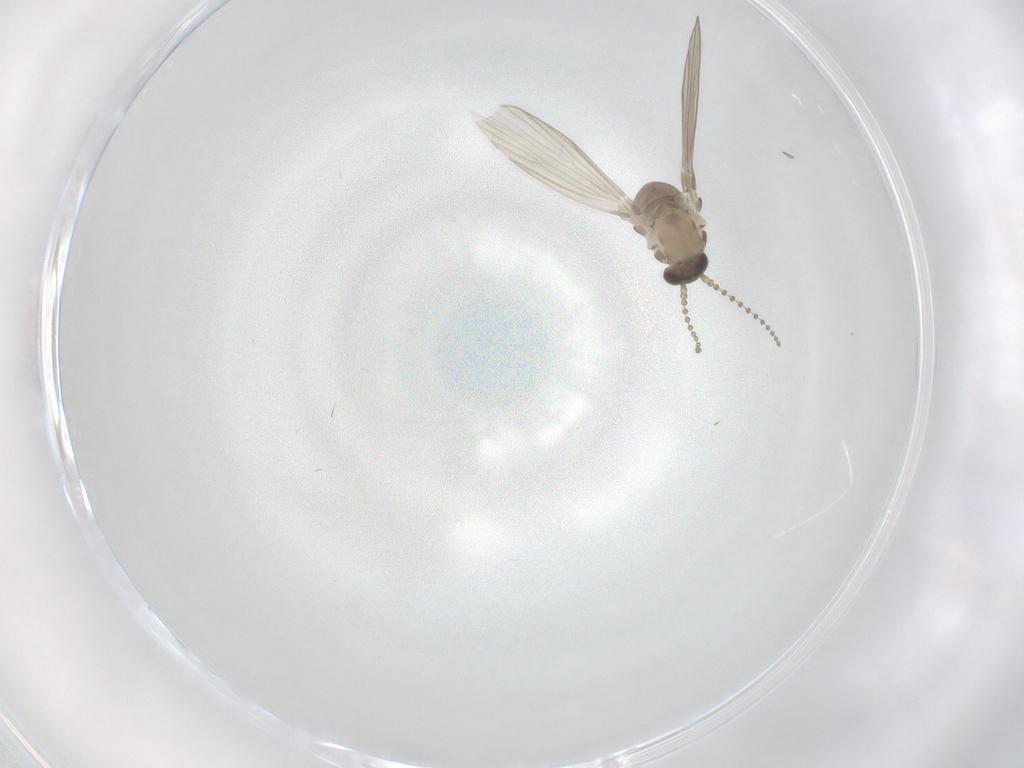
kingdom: Animalia
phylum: Arthropoda
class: Insecta
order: Diptera
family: Psychodidae
